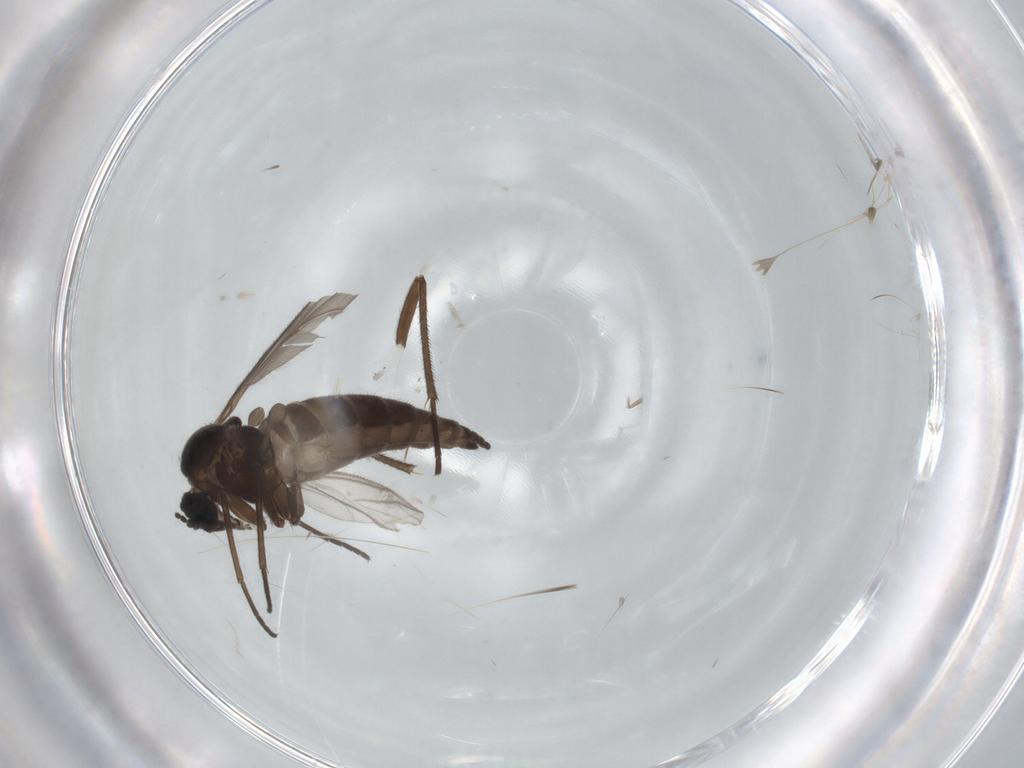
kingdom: Animalia
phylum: Arthropoda
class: Insecta
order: Diptera
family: Sciaridae
